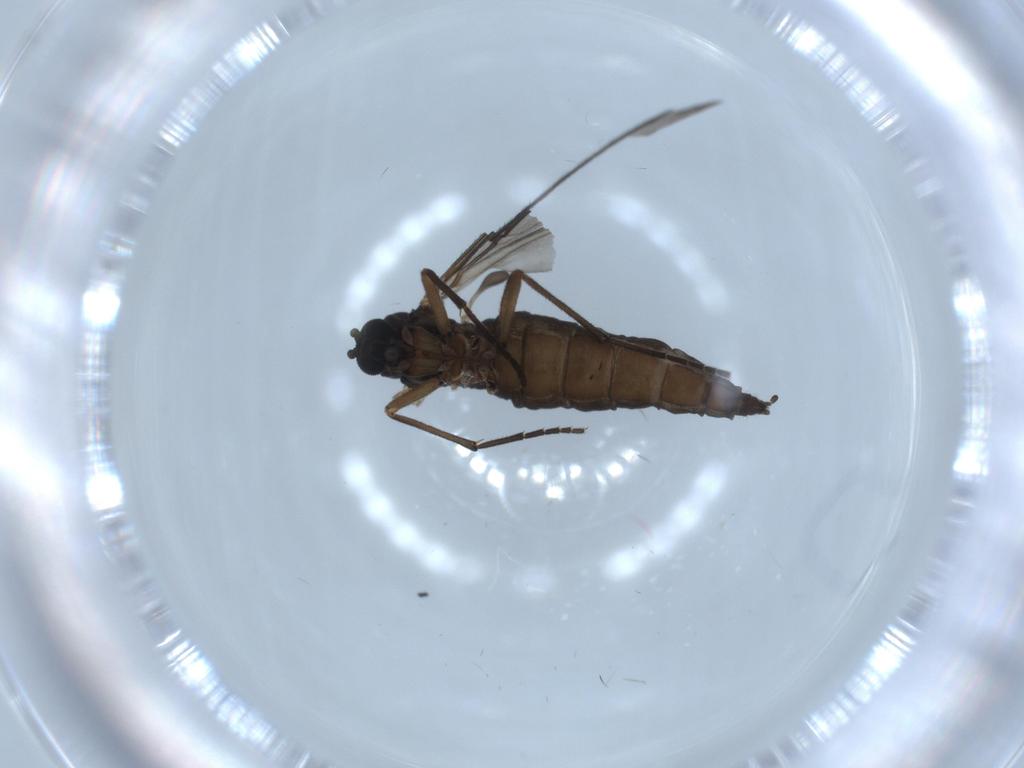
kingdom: Animalia
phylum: Arthropoda
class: Insecta
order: Diptera
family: Sciaridae
